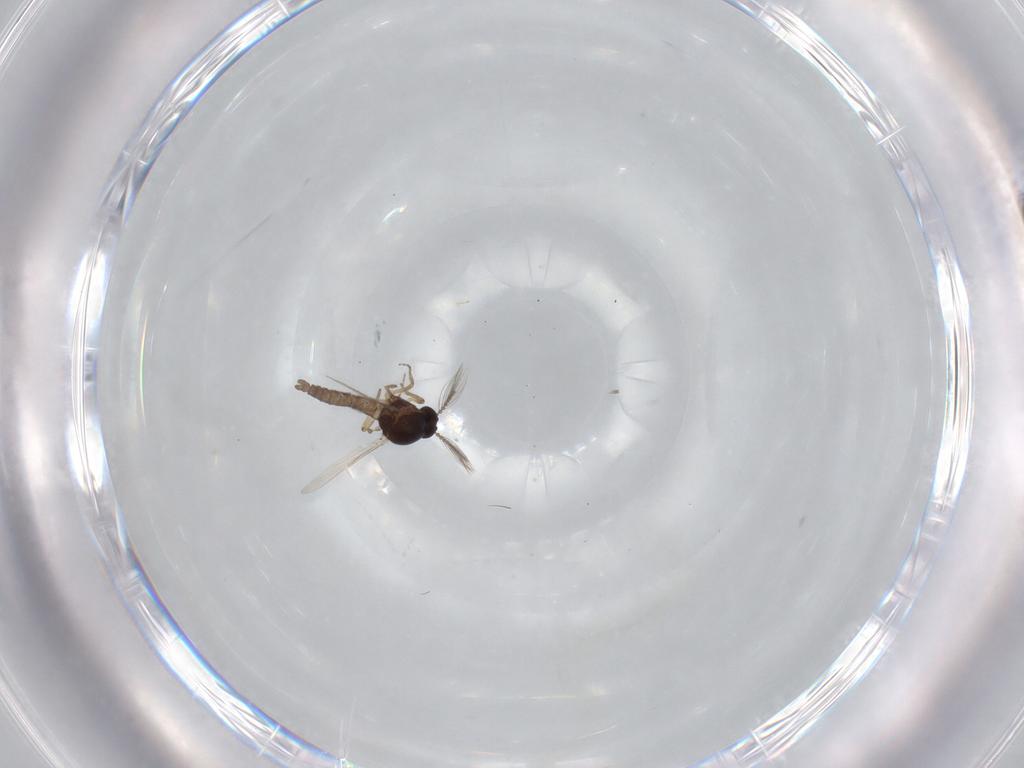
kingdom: Animalia
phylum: Arthropoda
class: Insecta
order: Diptera
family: Ceratopogonidae
